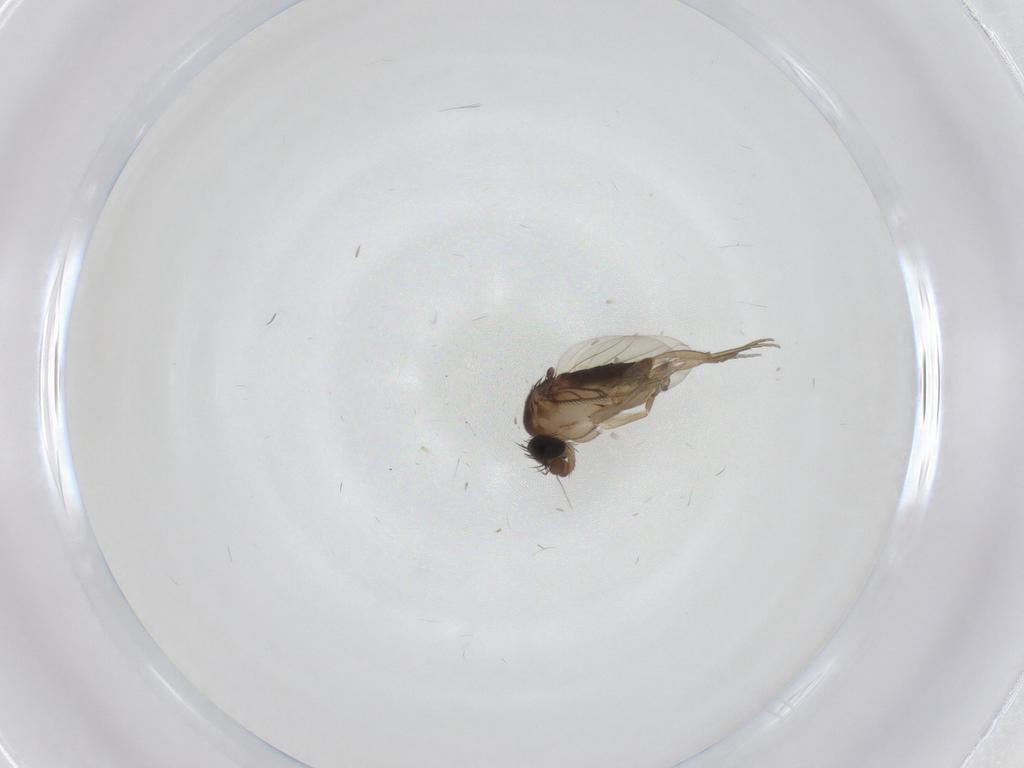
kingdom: Animalia
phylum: Arthropoda
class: Insecta
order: Diptera
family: Phoridae
